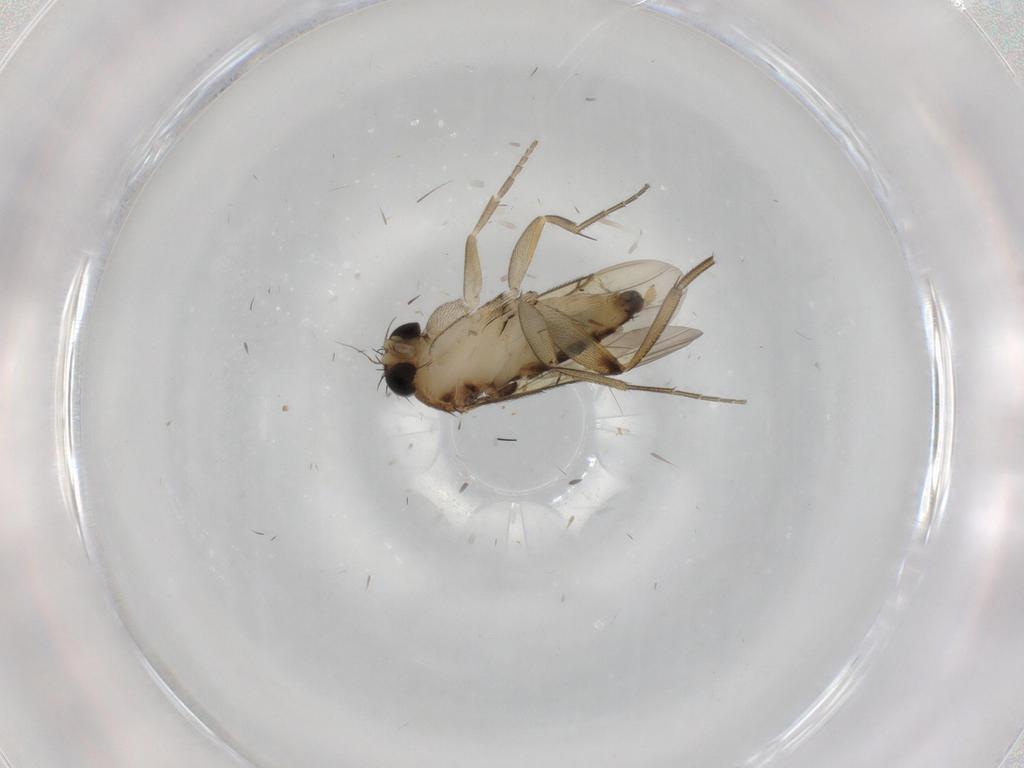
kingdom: Animalia
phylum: Arthropoda
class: Insecta
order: Diptera
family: Phoridae
